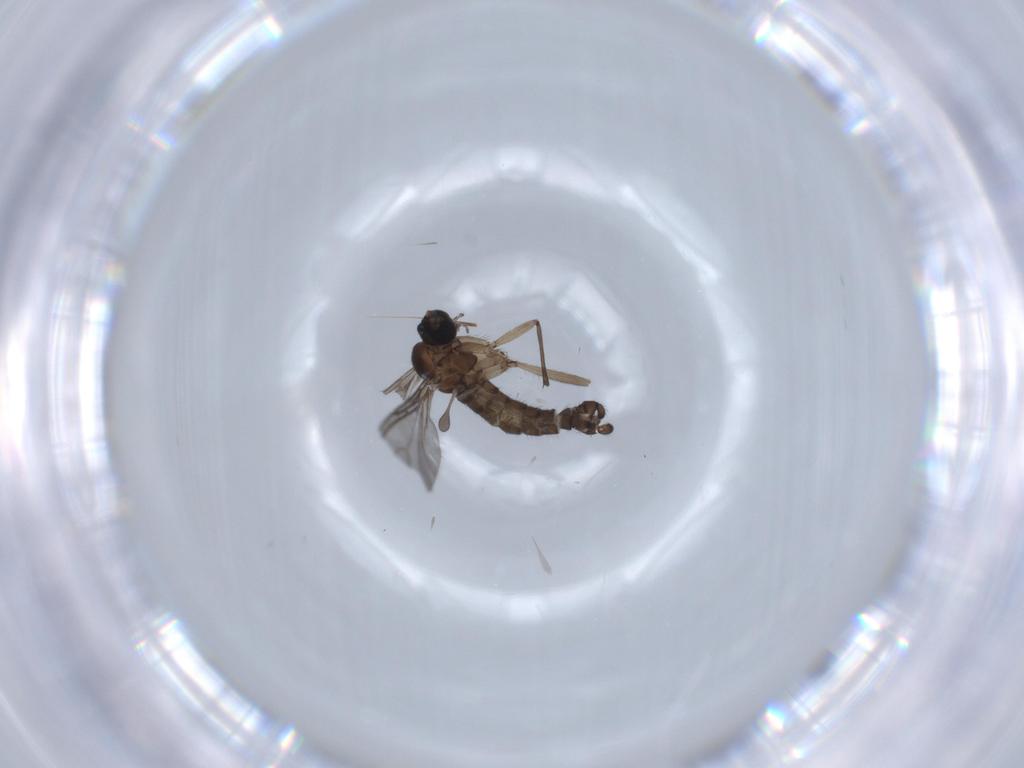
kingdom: Animalia
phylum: Arthropoda
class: Insecta
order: Diptera
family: Sciaridae
